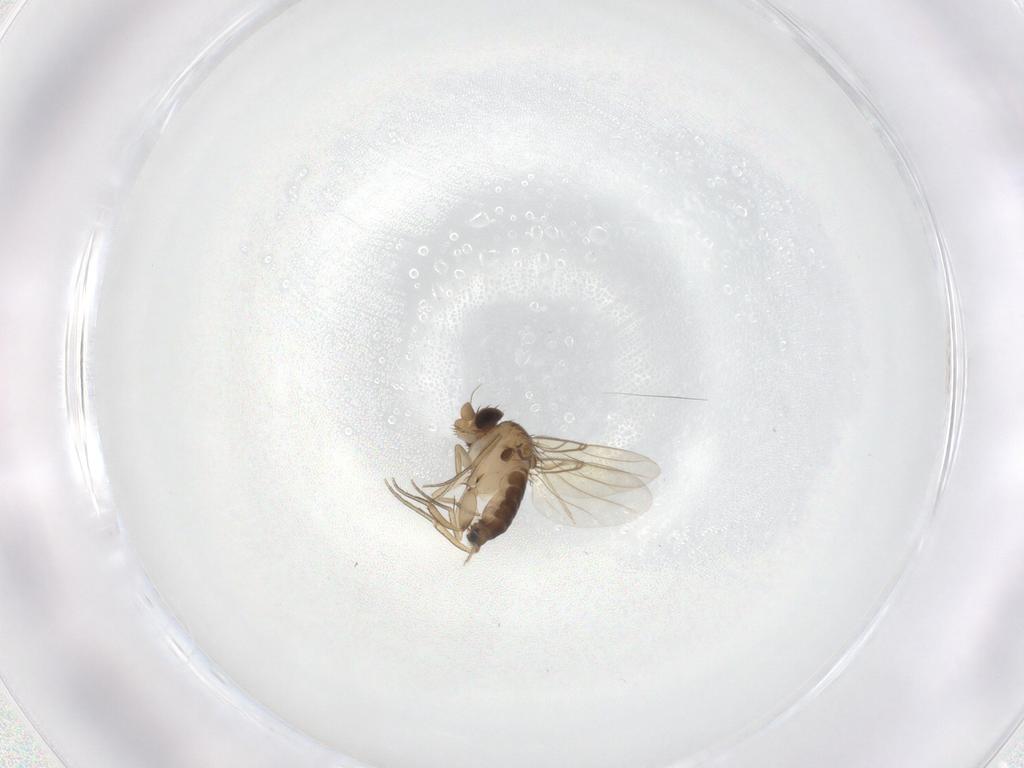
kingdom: Animalia
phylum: Arthropoda
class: Insecta
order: Diptera
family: Phoridae
